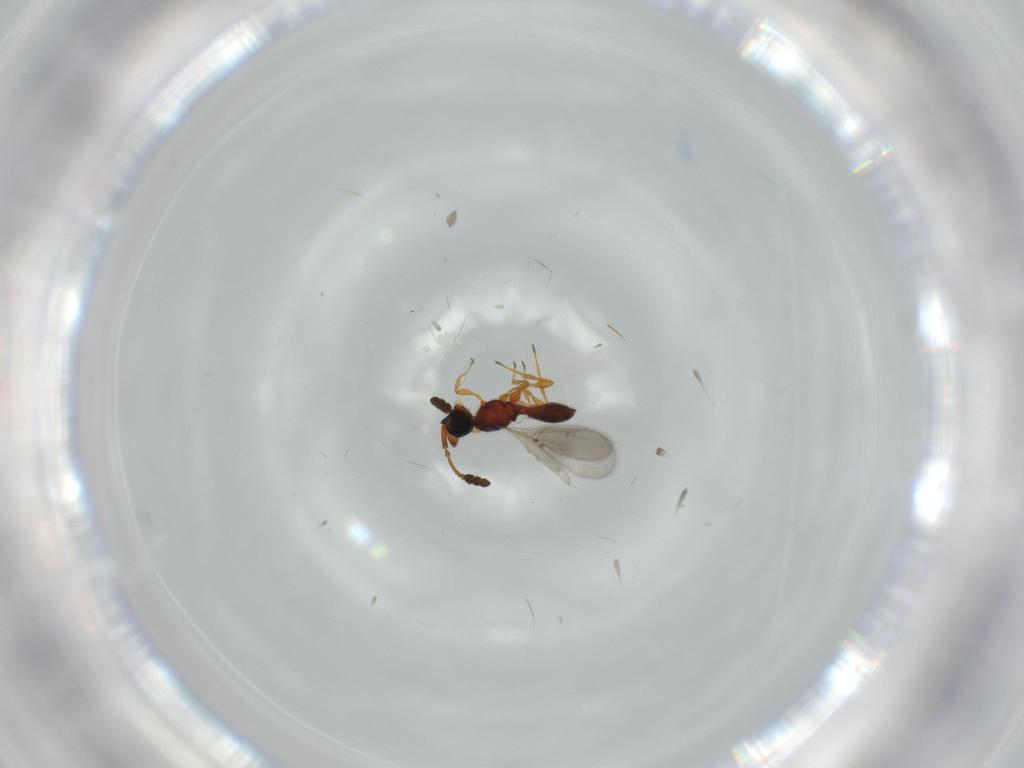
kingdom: Animalia
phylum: Arthropoda
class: Insecta
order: Hymenoptera
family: Diapriidae
